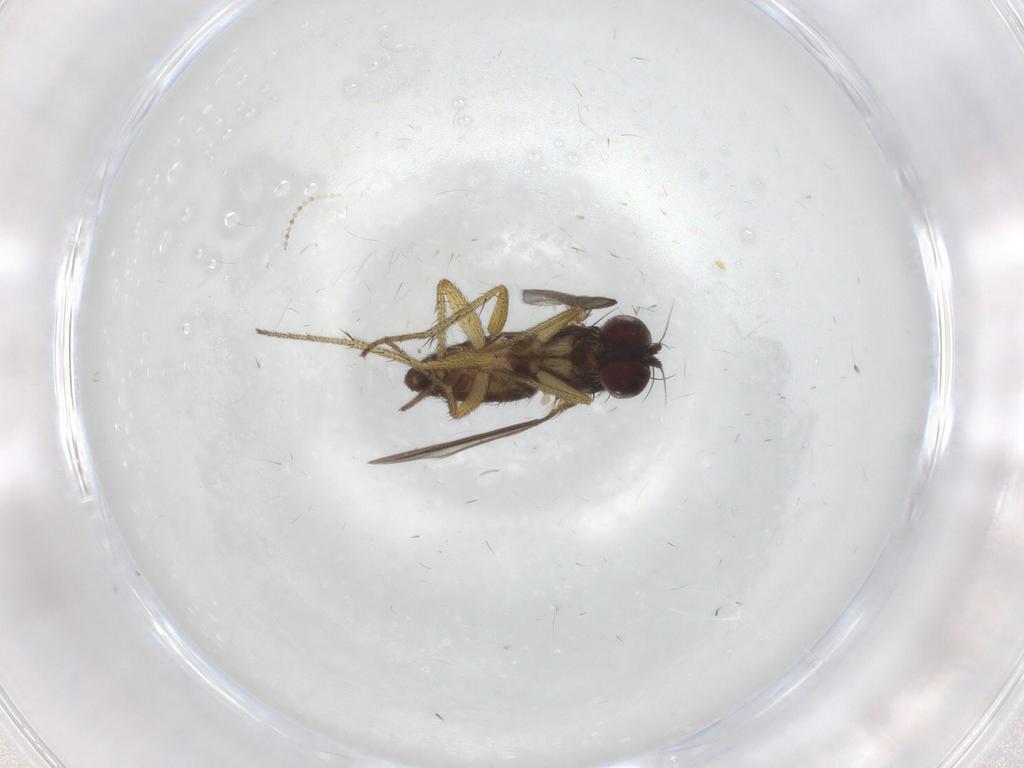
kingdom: Animalia
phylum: Arthropoda
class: Insecta
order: Diptera
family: Dolichopodidae
